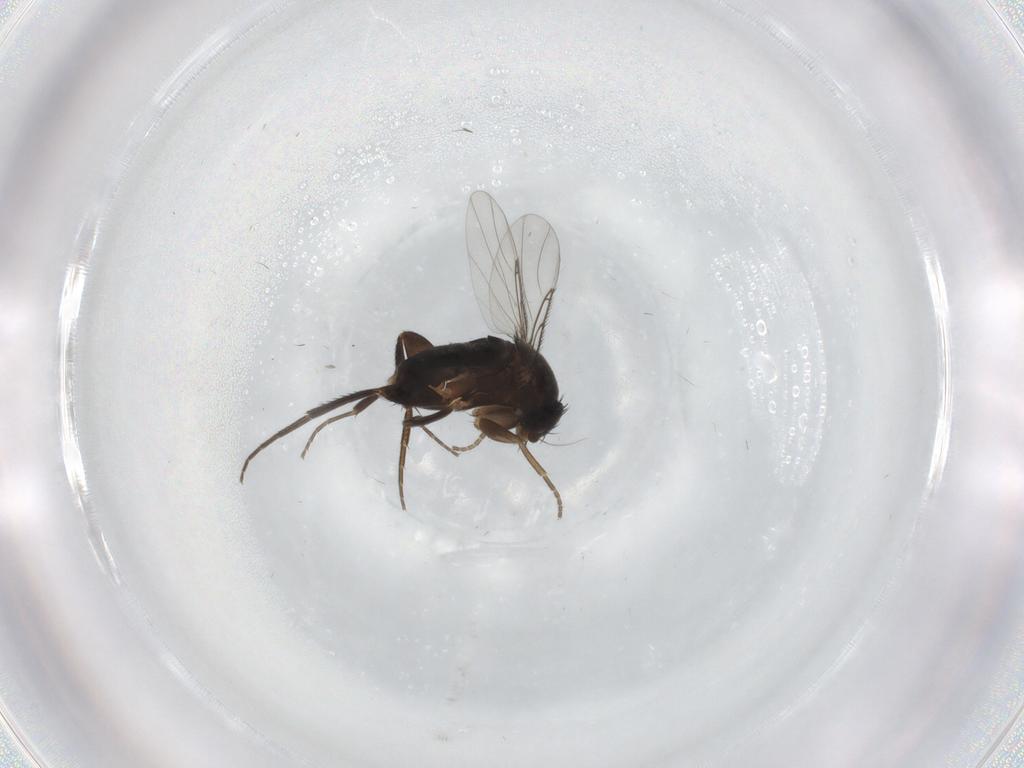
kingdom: Animalia
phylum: Arthropoda
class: Insecta
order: Diptera
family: Phoridae
